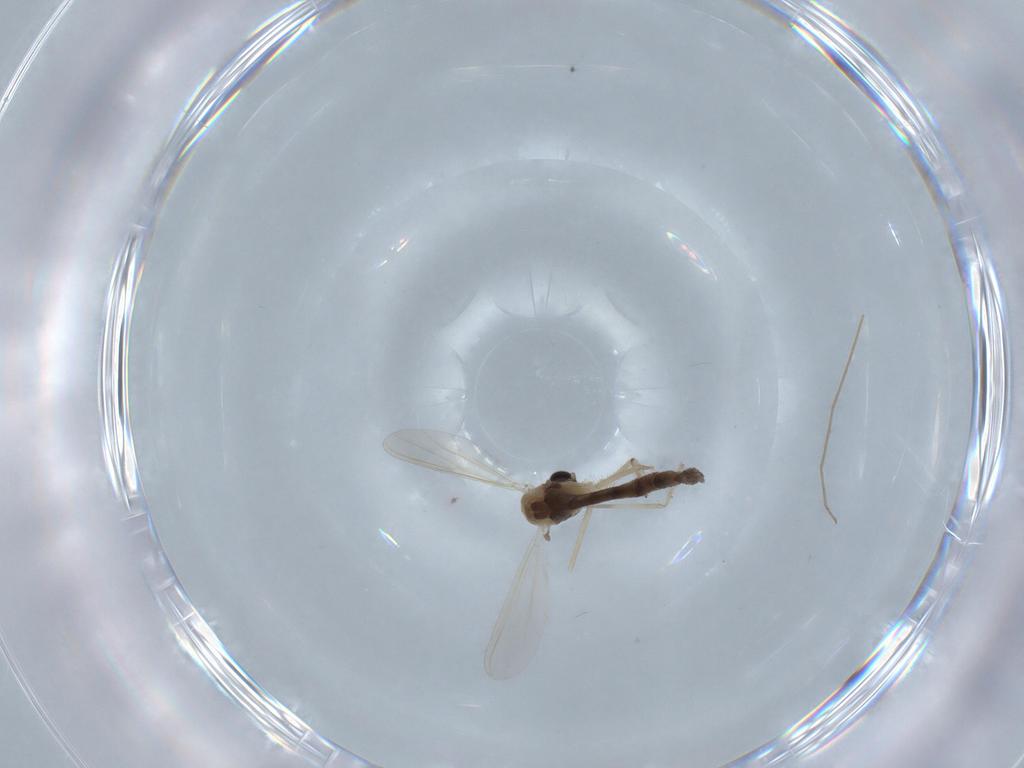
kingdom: Animalia
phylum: Arthropoda
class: Insecta
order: Diptera
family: Chironomidae
